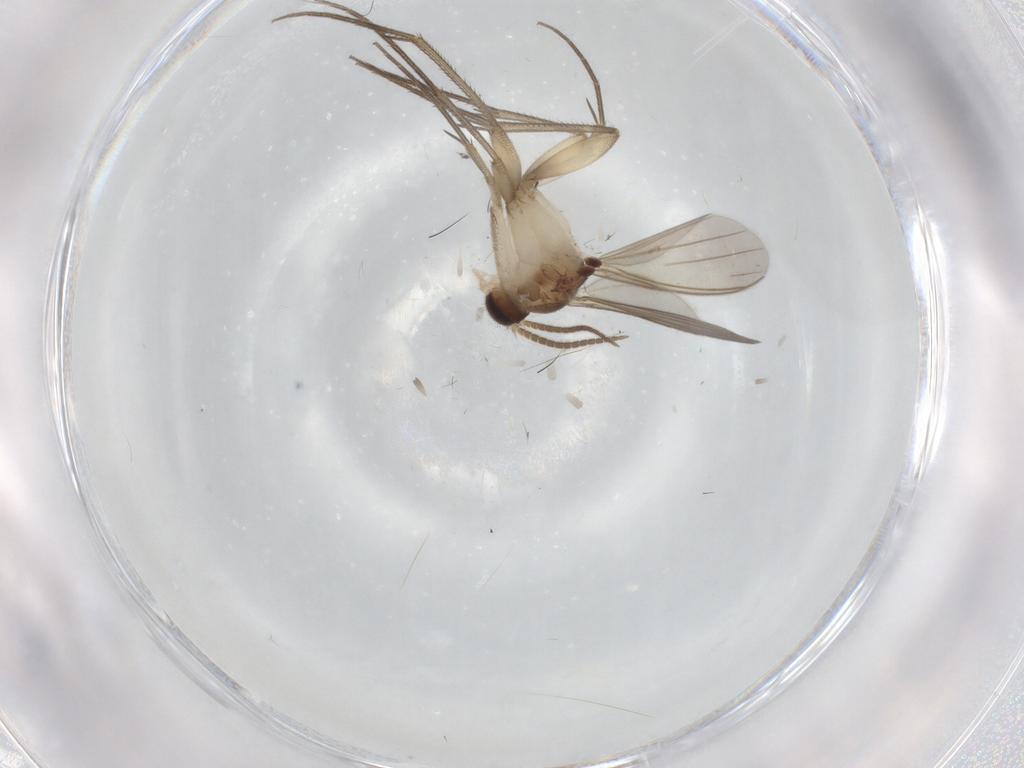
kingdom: Animalia
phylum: Arthropoda
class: Insecta
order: Diptera
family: Mycetophilidae
